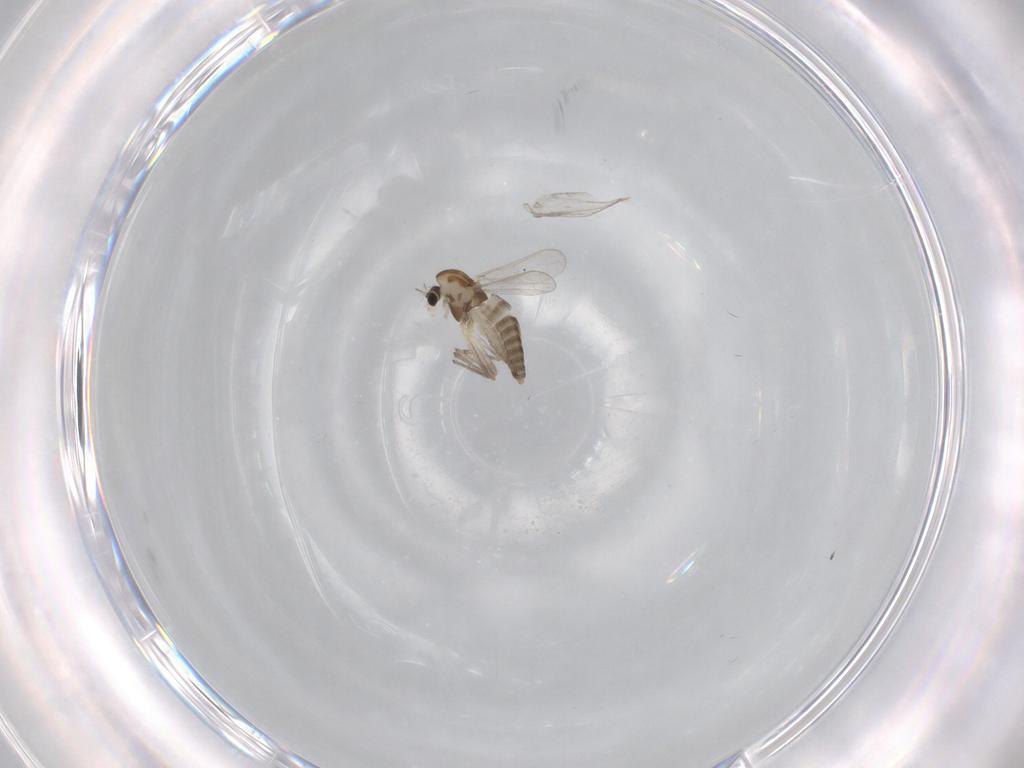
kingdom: Animalia
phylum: Arthropoda
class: Insecta
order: Diptera
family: Chironomidae
